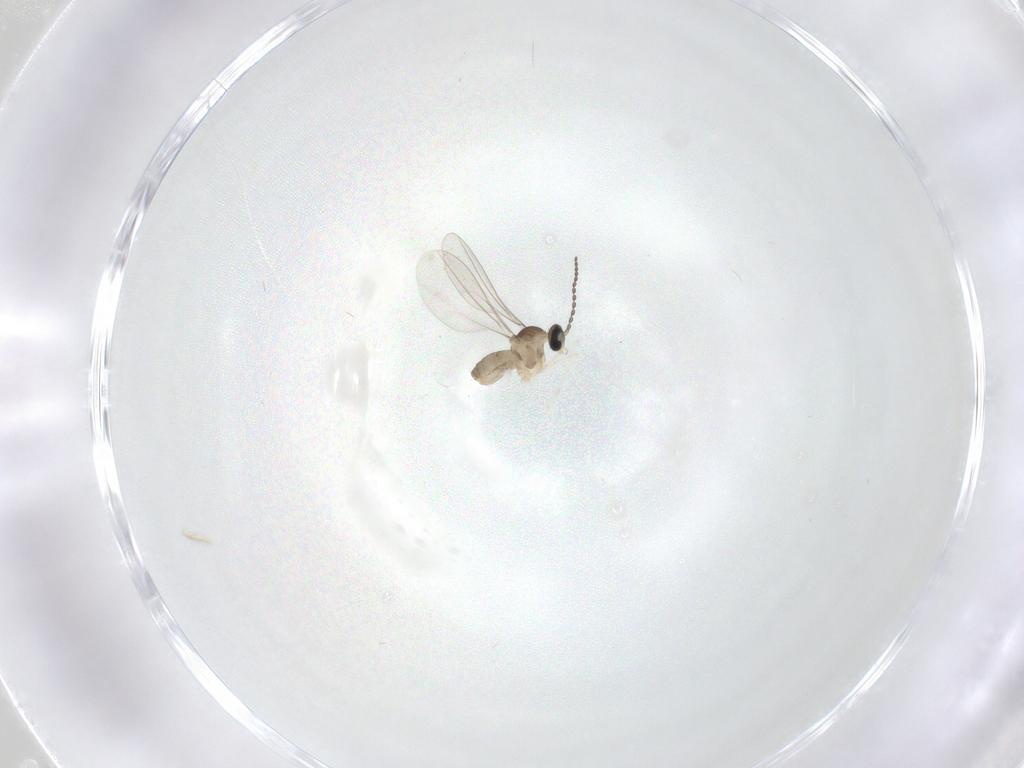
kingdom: Animalia
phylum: Arthropoda
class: Insecta
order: Diptera
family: Cecidomyiidae
